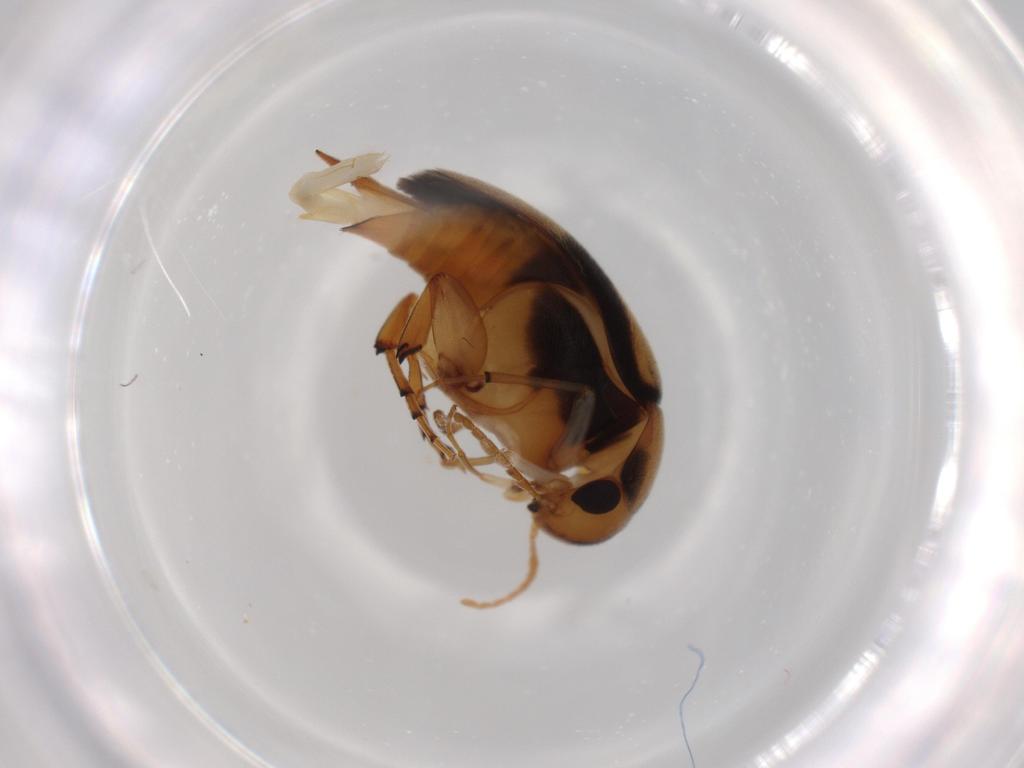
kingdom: Animalia
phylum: Arthropoda
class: Insecta
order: Coleoptera
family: Mordellidae
